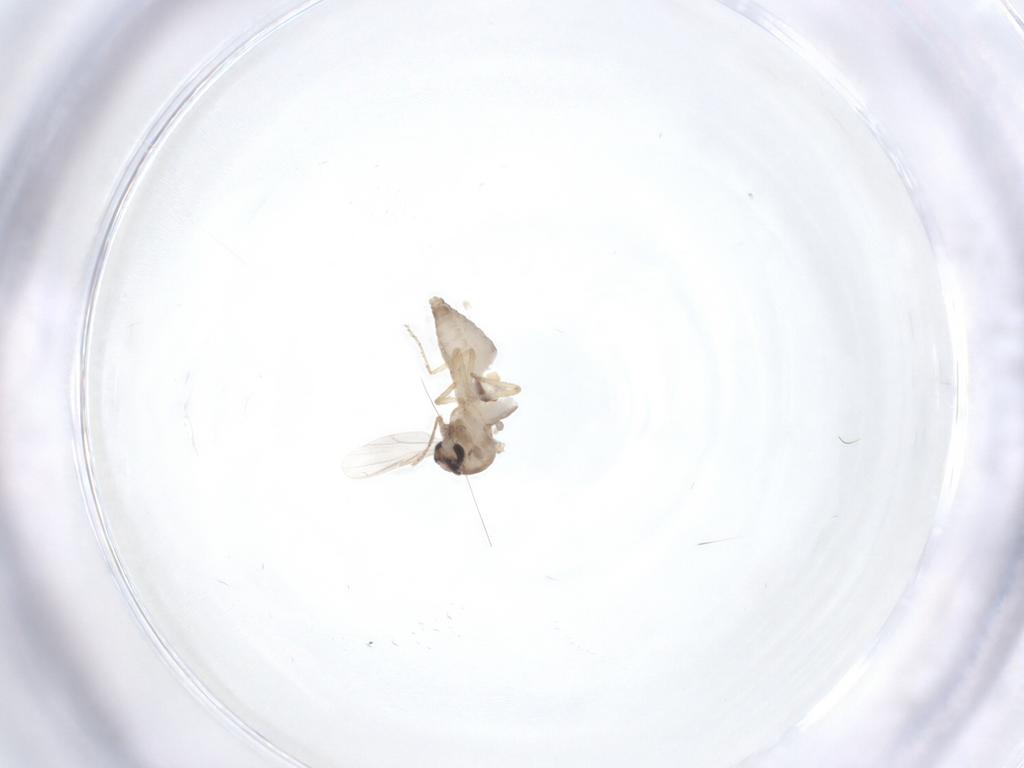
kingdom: Animalia
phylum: Arthropoda
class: Insecta
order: Diptera
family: Ceratopogonidae
